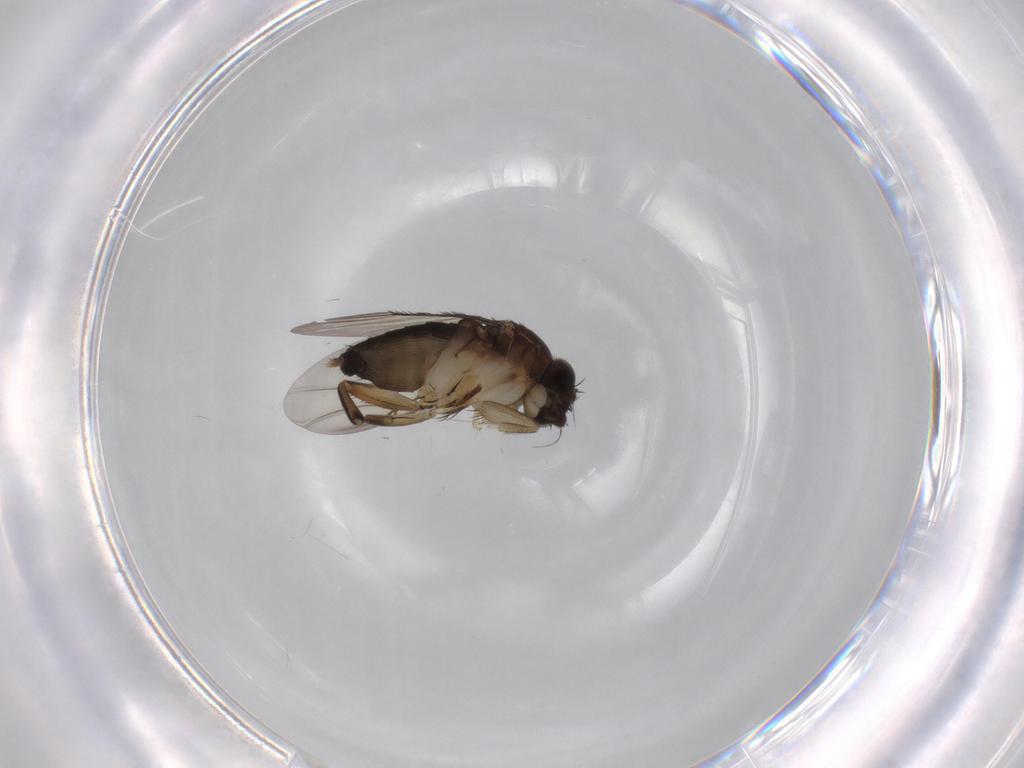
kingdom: Animalia
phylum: Arthropoda
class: Insecta
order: Diptera
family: Phoridae
